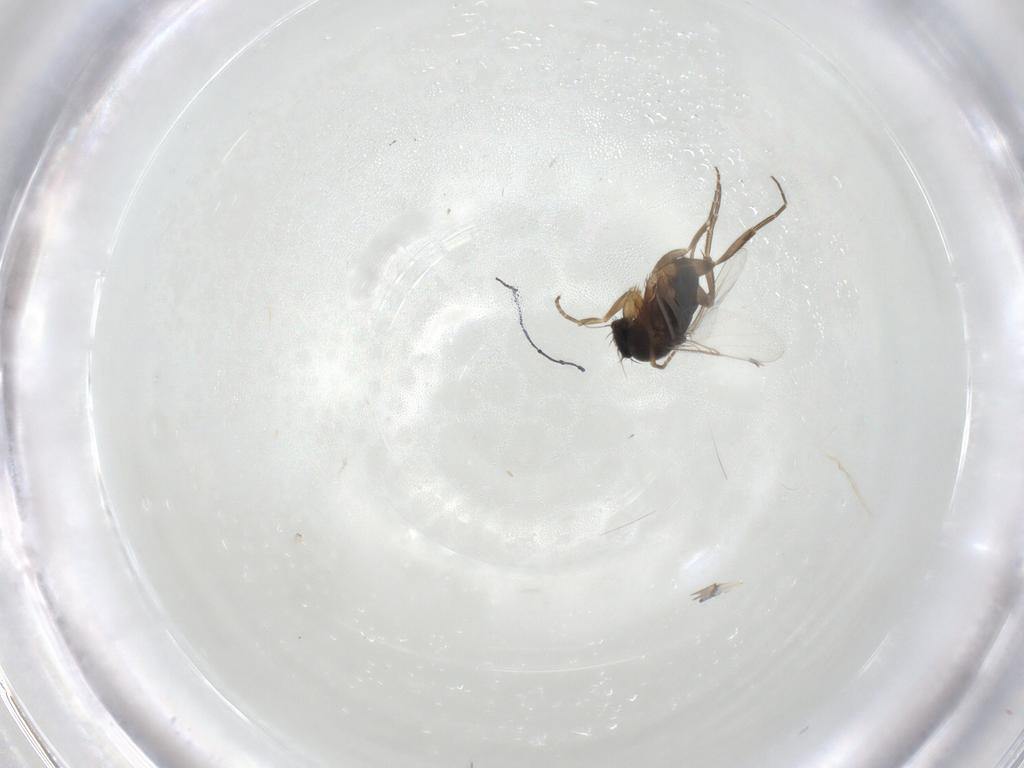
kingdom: Animalia
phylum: Arthropoda
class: Insecta
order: Diptera
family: Phoridae
